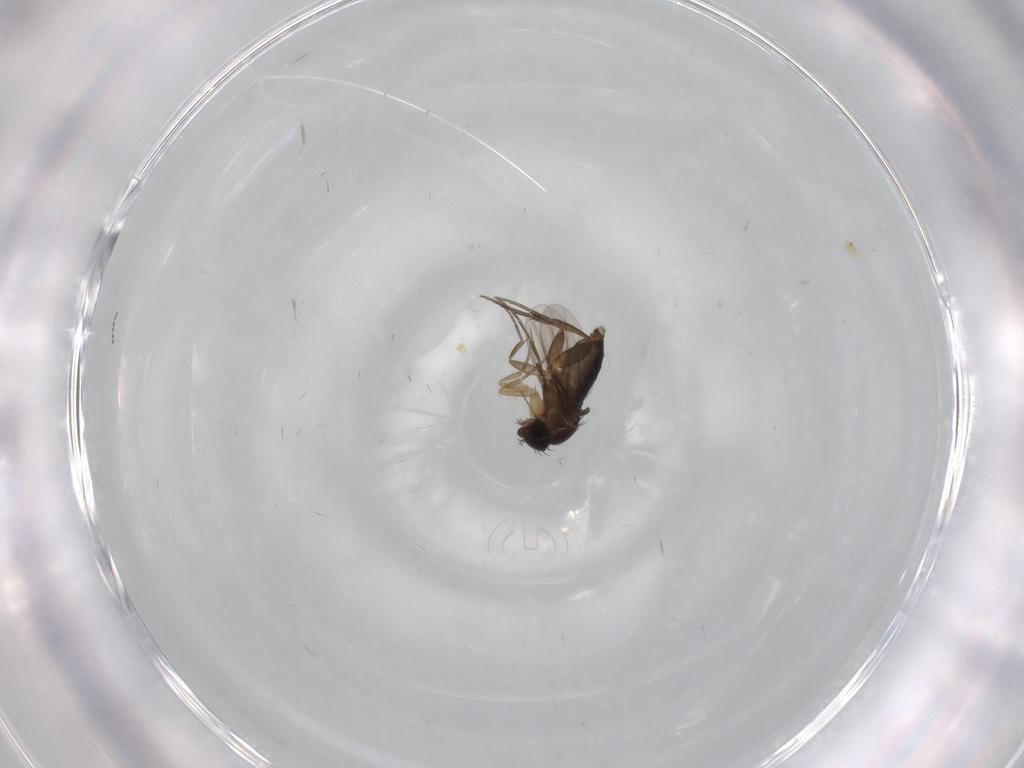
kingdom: Animalia
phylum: Arthropoda
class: Insecta
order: Diptera
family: Cecidomyiidae
